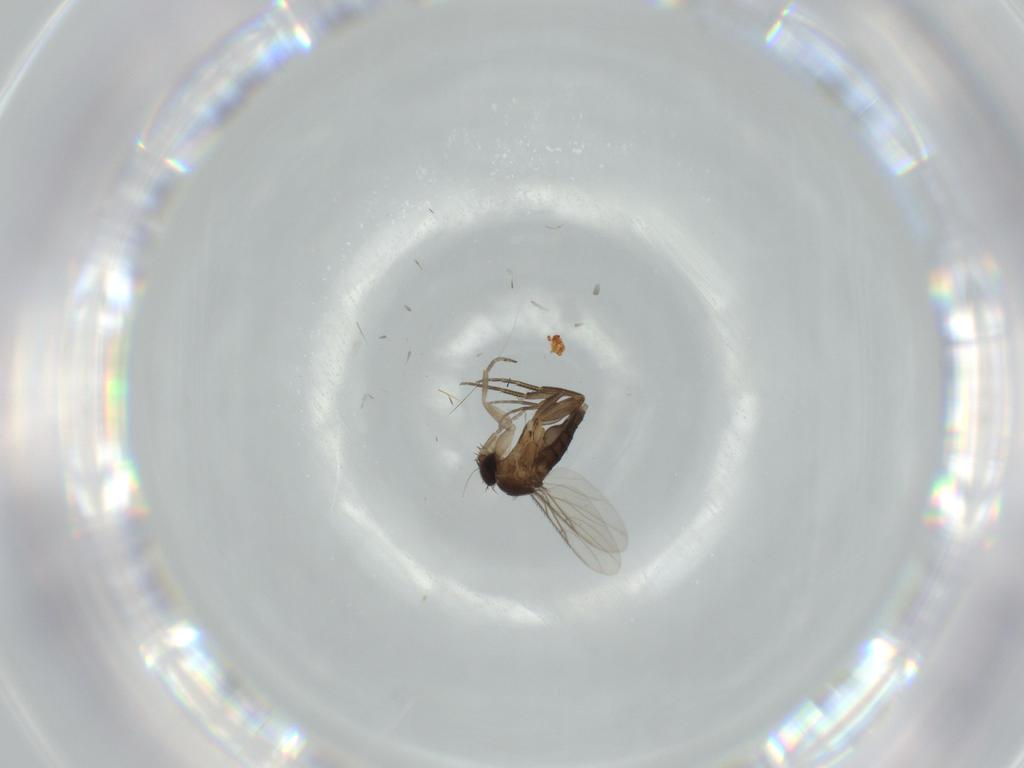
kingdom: Animalia
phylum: Arthropoda
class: Insecta
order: Diptera
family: Phoridae
